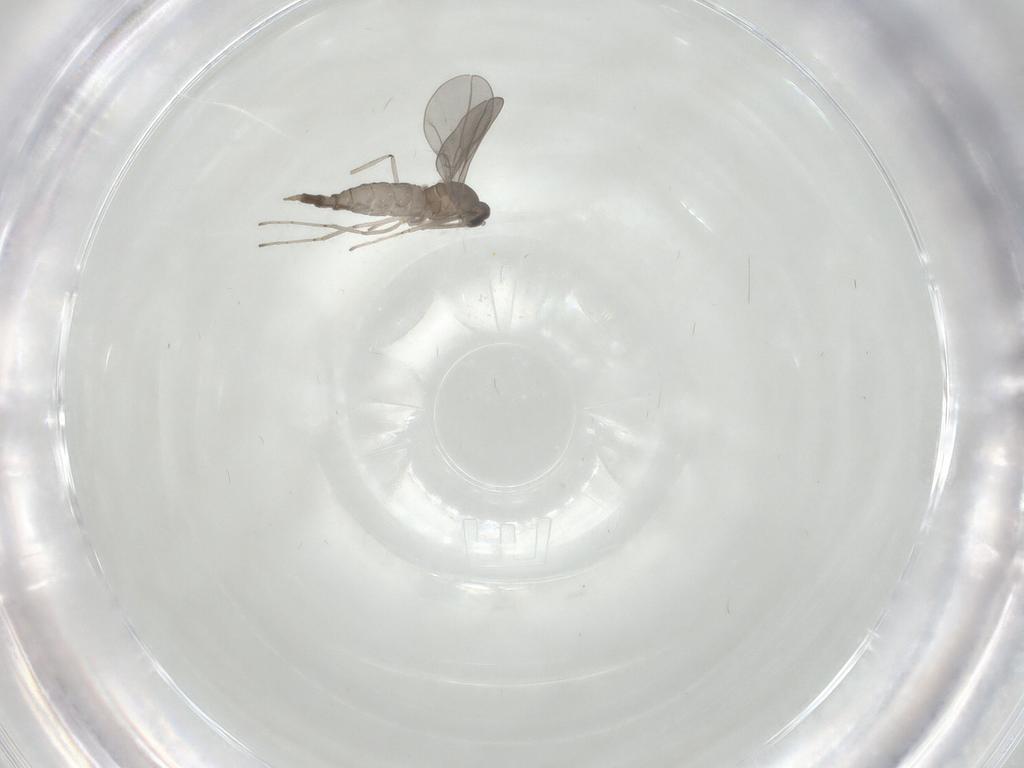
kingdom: Animalia
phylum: Arthropoda
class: Insecta
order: Diptera
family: Cecidomyiidae
